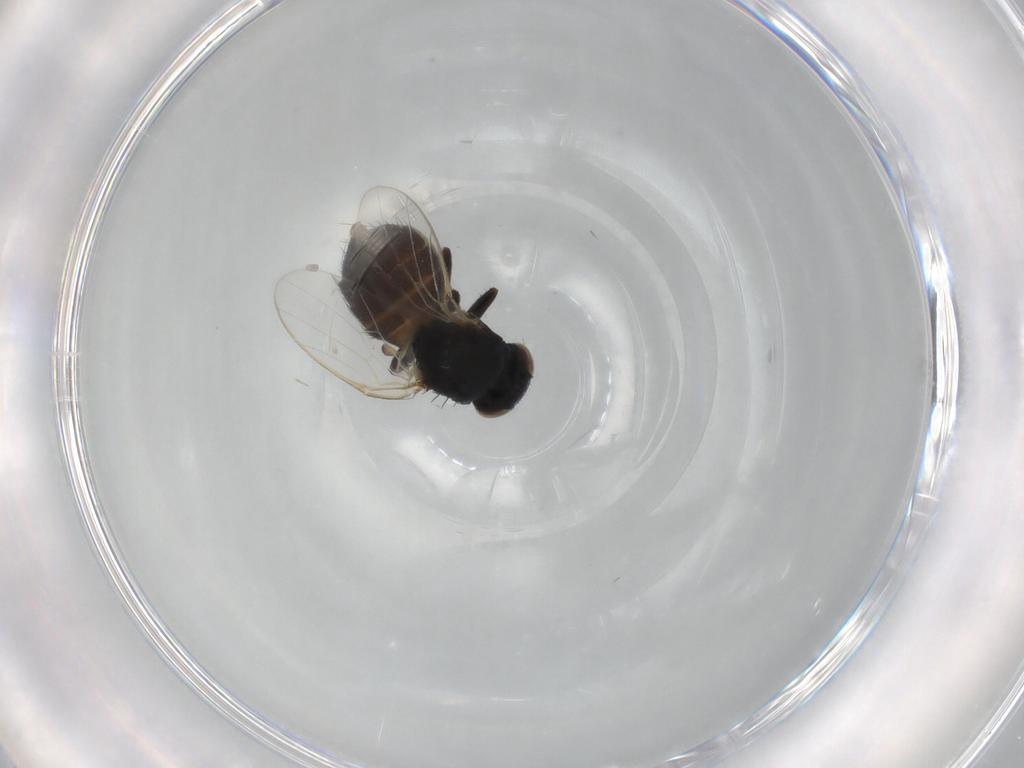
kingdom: Animalia
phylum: Arthropoda
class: Insecta
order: Diptera
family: Chloropidae
